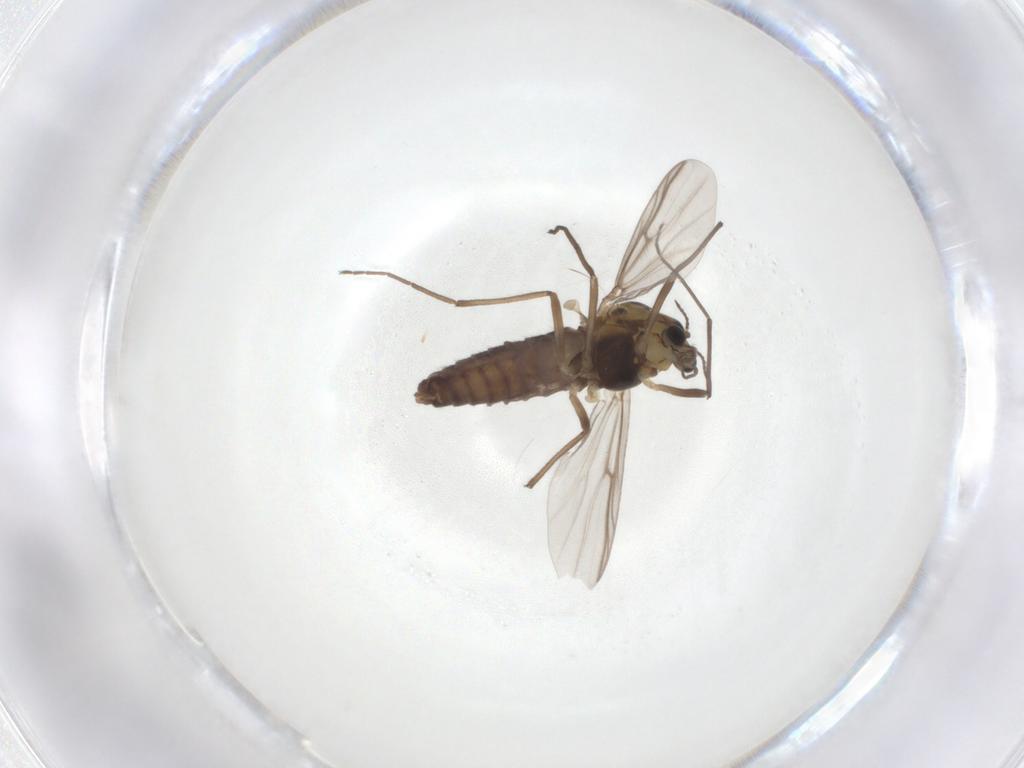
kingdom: Animalia
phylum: Arthropoda
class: Insecta
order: Diptera
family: Chironomidae
